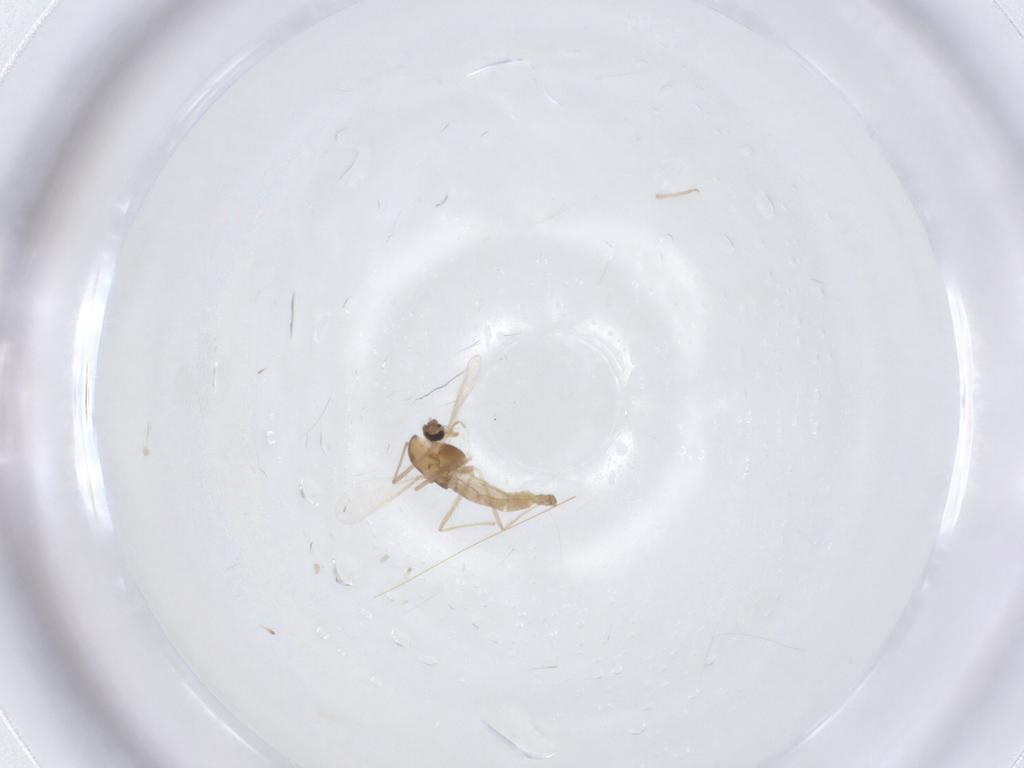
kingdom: Animalia
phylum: Arthropoda
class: Insecta
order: Diptera
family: Chironomidae
